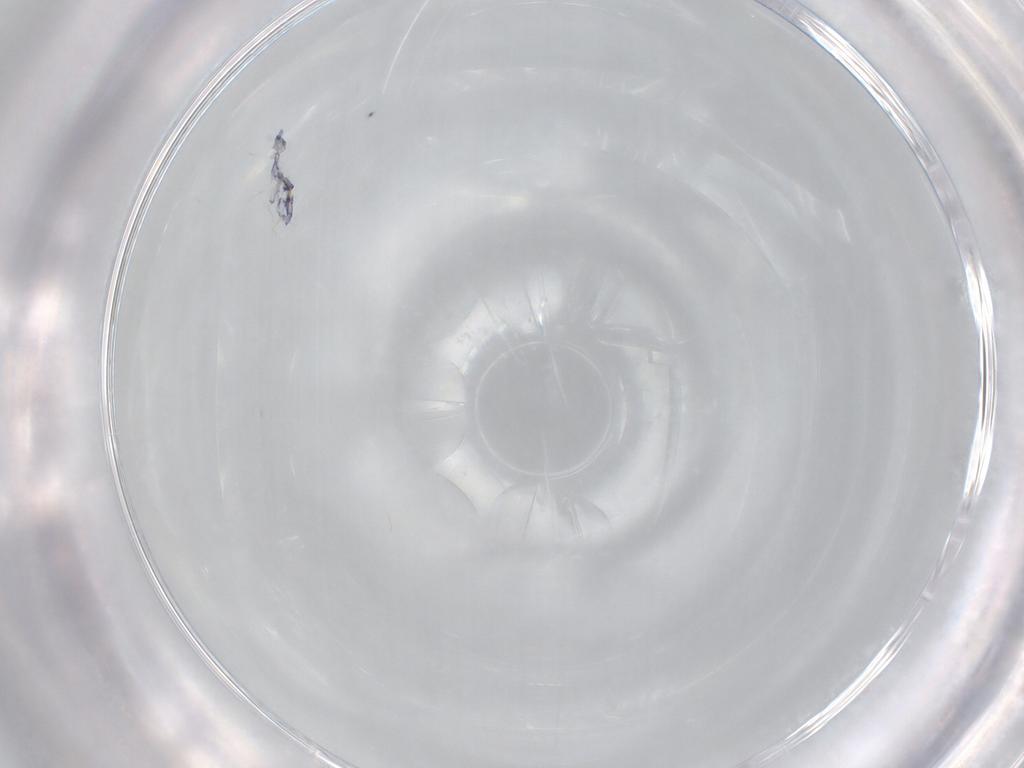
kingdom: Animalia
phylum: Arthropoda
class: Collembola
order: Entomobryomorpha
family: Entomobryidae
